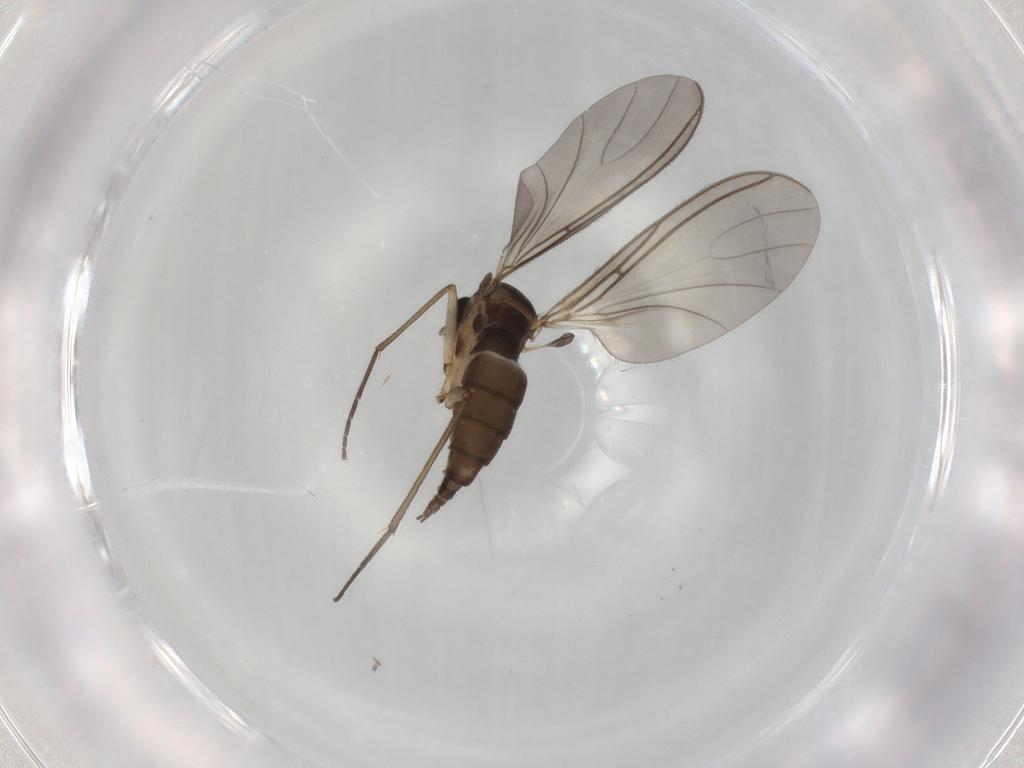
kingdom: Animalia
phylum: Arthropoda
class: Insecta
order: Diptera
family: Sciaridae
